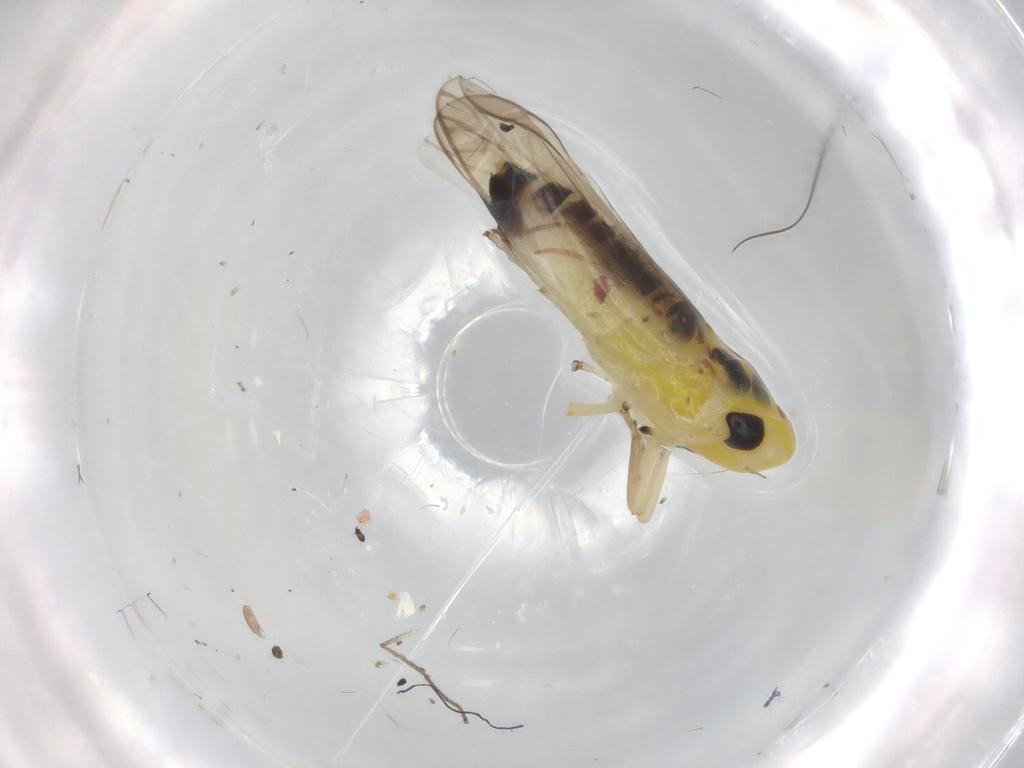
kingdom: Animalia
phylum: Arthropoda
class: Insecta
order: Hemiptera
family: Cicadellidae
